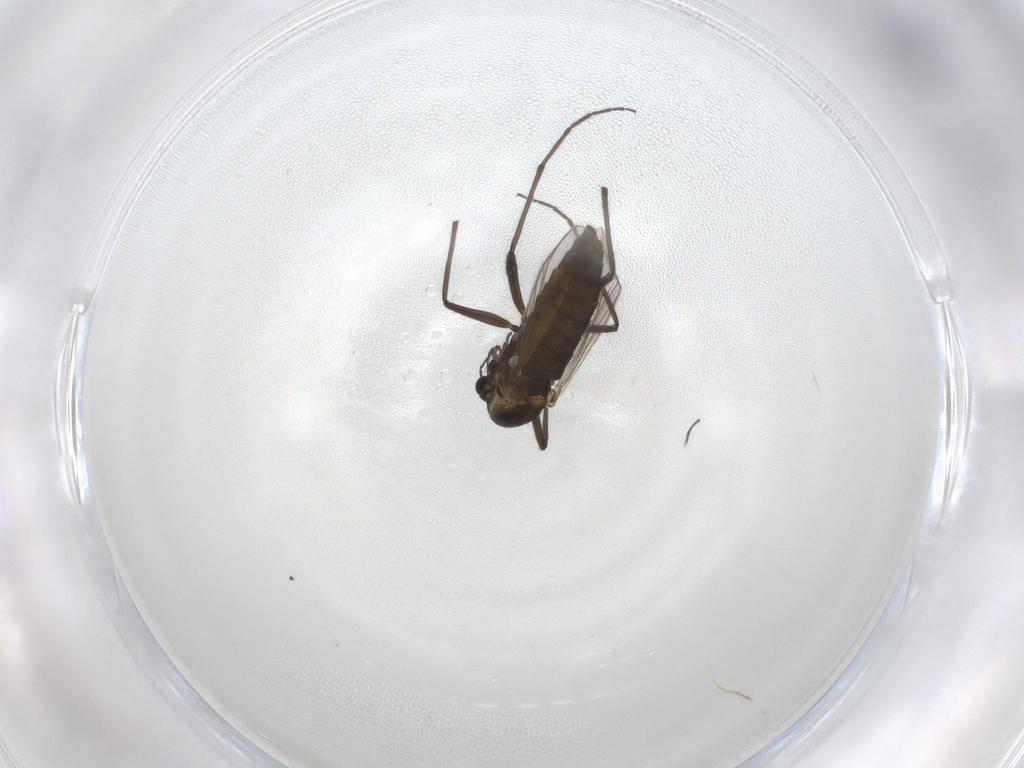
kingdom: Animalia
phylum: Arthropoda
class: Insecta
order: Diptera
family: Chironomidae
